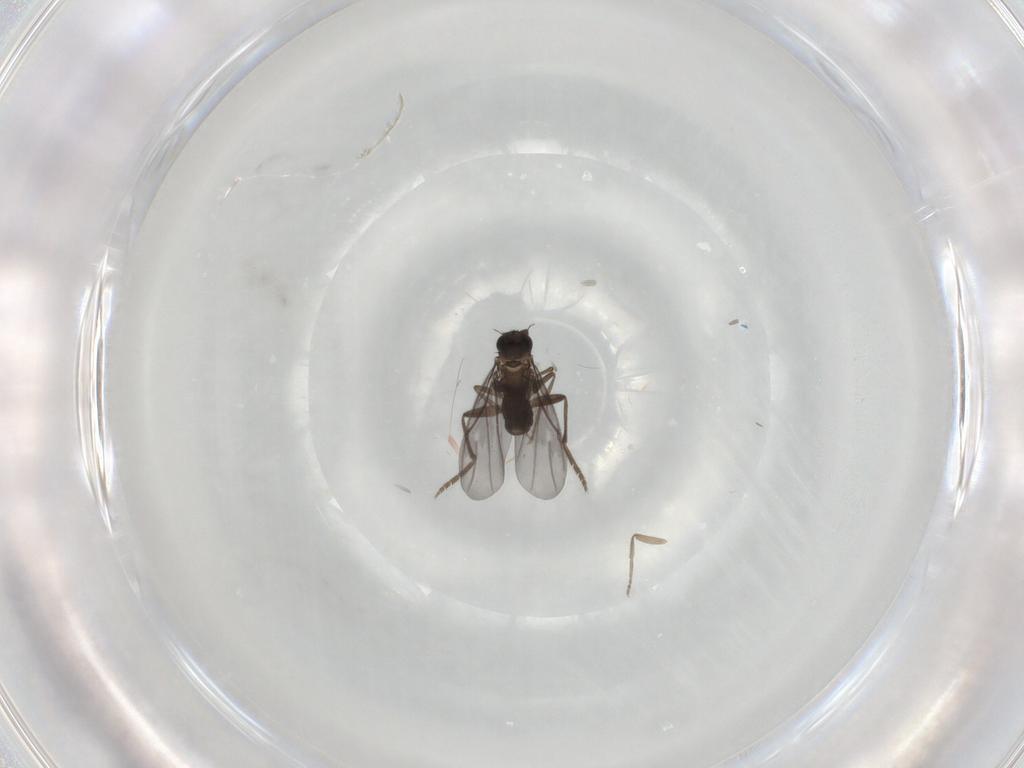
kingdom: Animalia
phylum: Arthropoda
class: Insecta
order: Diptera
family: Phoridae
